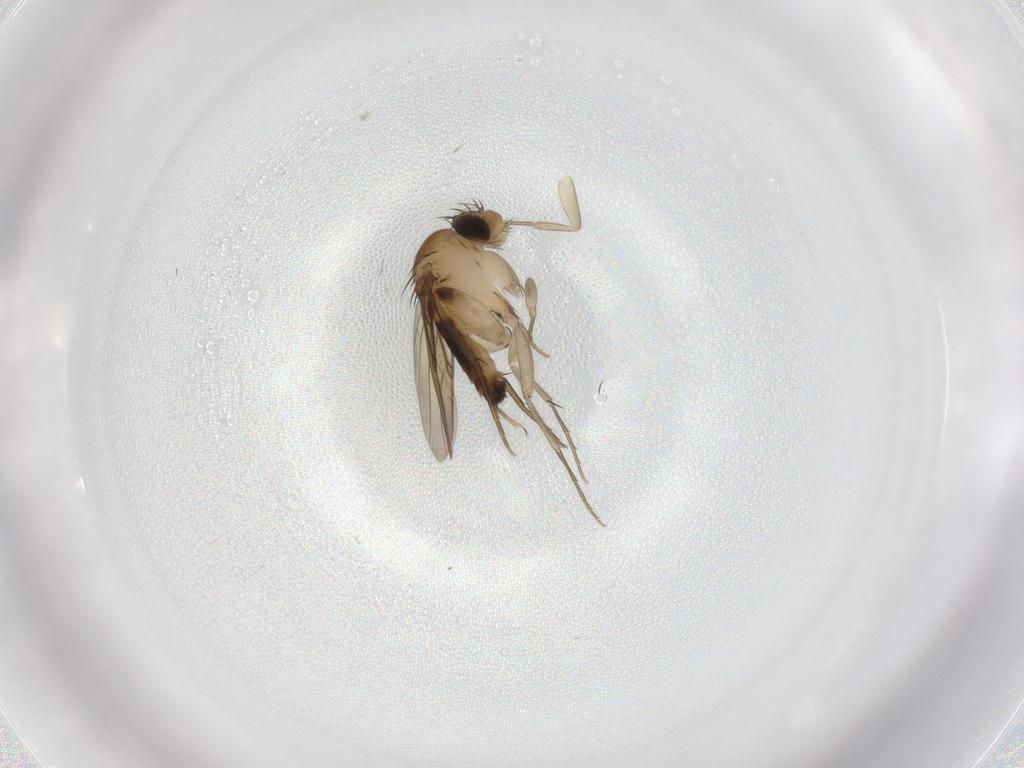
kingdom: Animalia
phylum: Arthropoda
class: Insecta
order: Diptera
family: Phoridae
